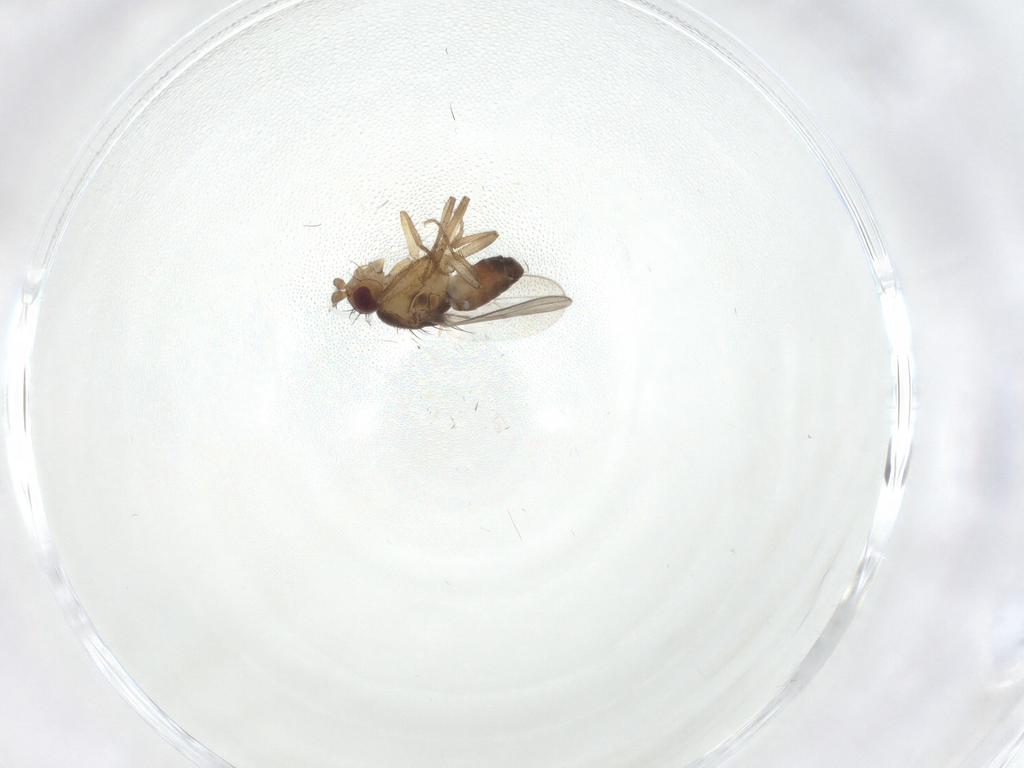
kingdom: Animalia
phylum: Arthropoda
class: Insecta
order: Diptera
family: Sphaeroceridae
